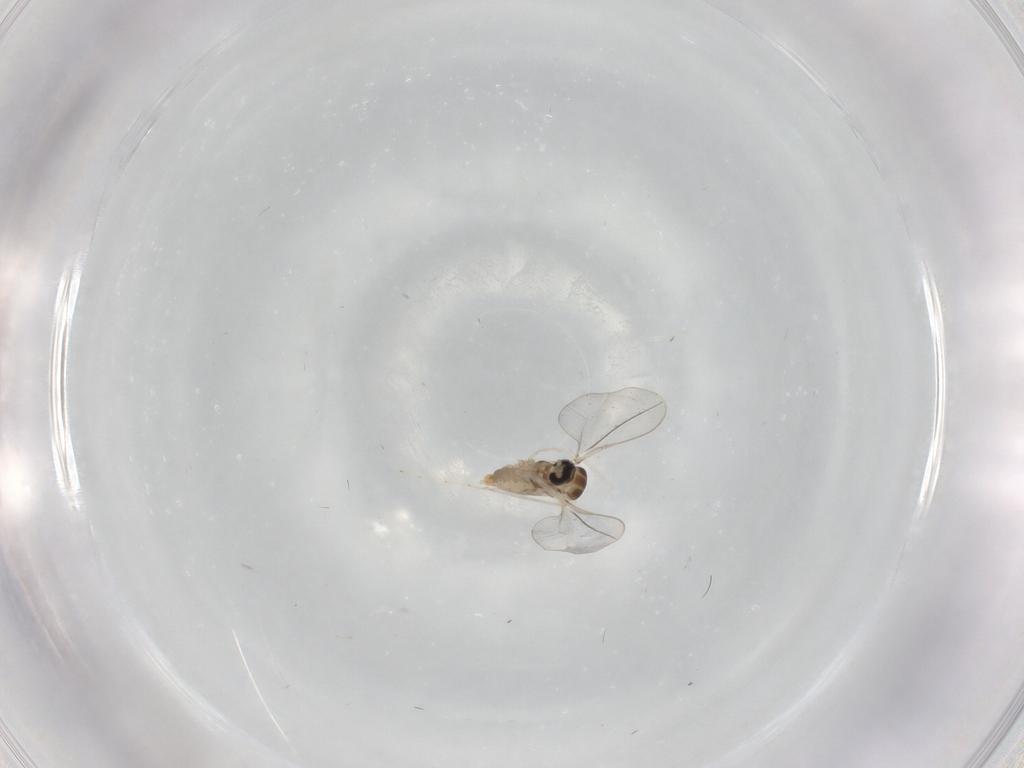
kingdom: Animalia
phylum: Arthropoda
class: Insecta
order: Diptera
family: Cecidomyiidae
